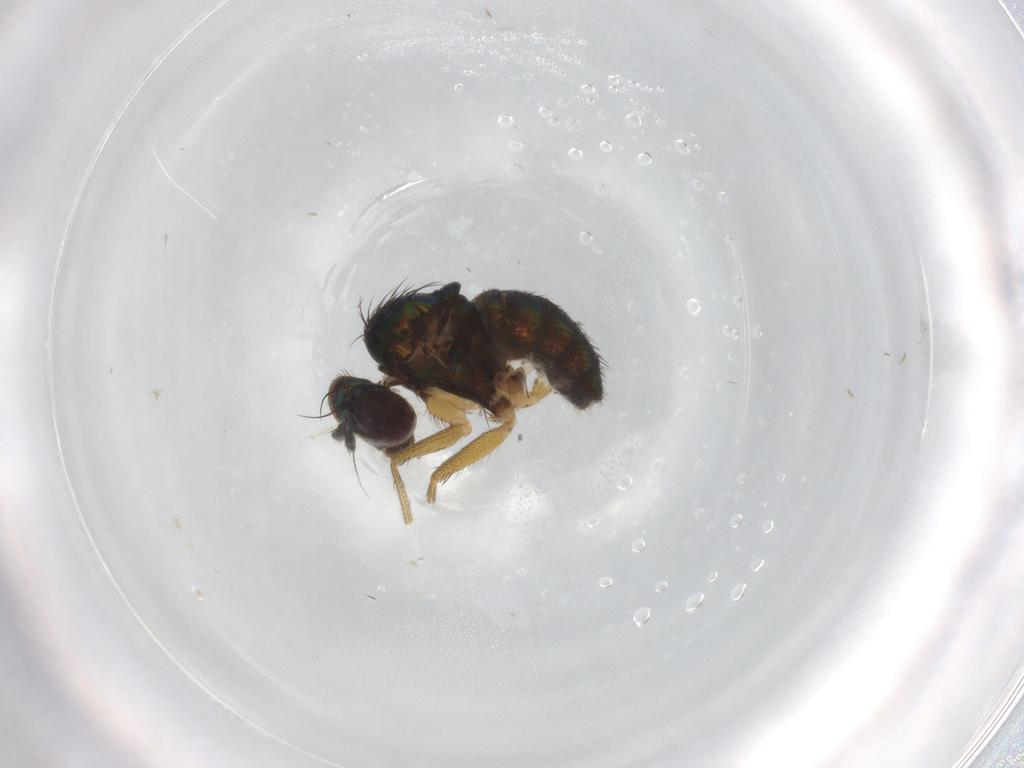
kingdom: Animalia
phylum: Arthropoda
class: Insecta
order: Diptera
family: Dolichopodidae
